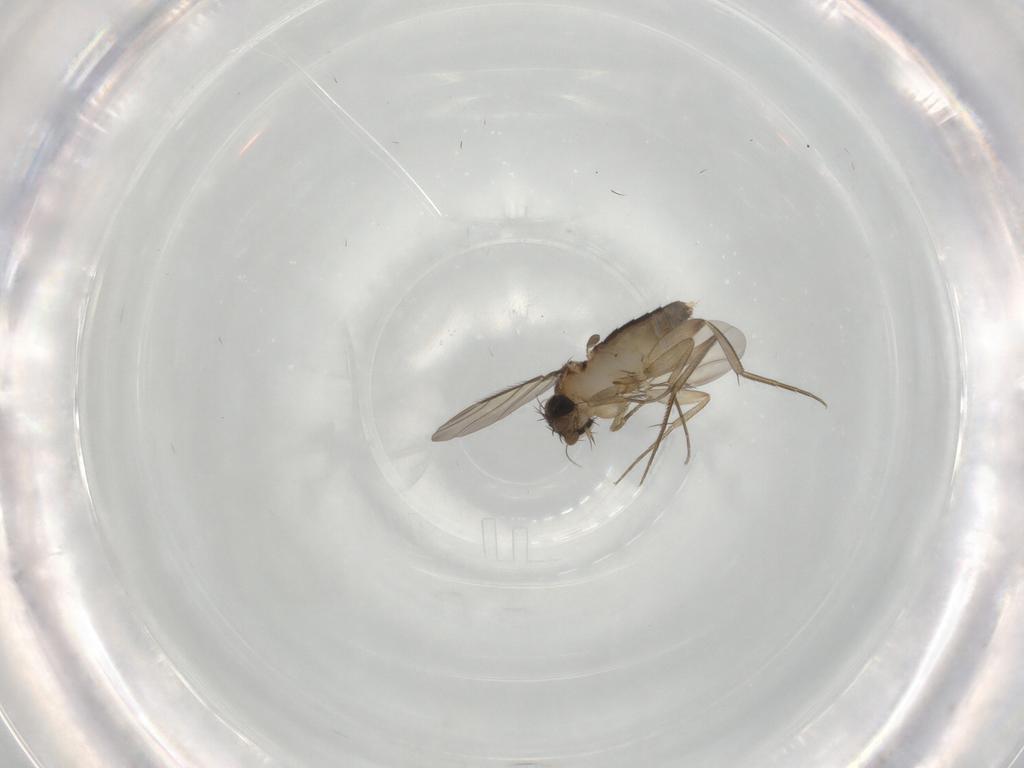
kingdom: Animalia
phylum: Arthropoda
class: Insecta
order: Diptera
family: Phoridae
